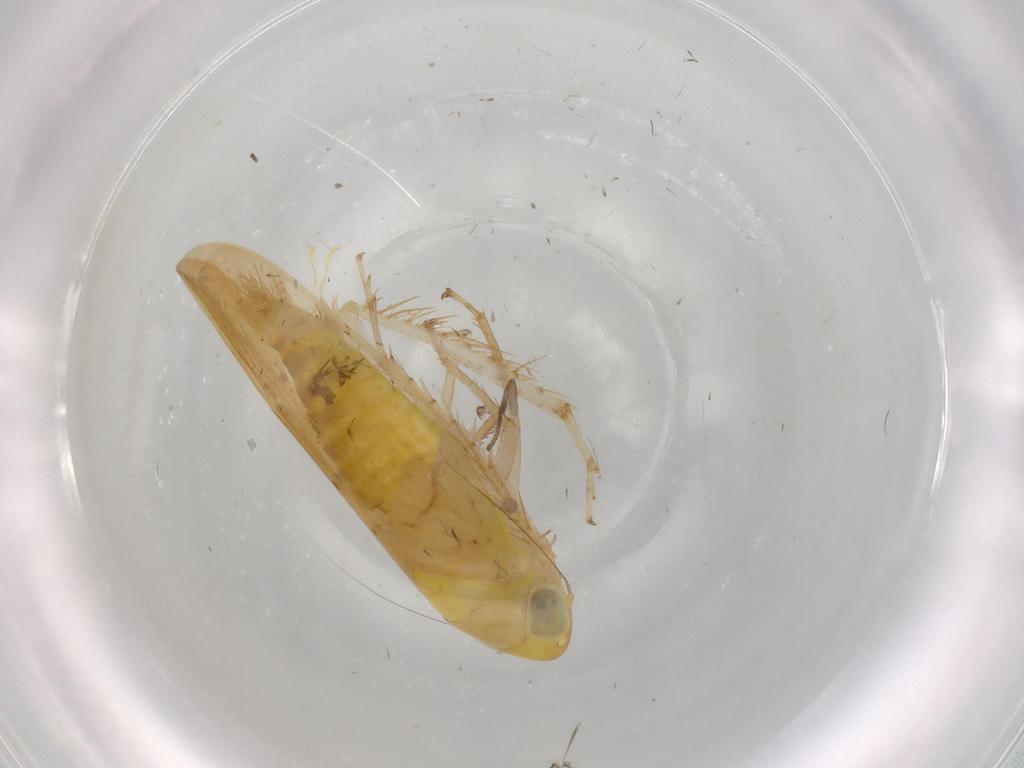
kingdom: Animalia
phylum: Arthropoda
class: Insecta
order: Hemiptera
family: Cicadellidae
